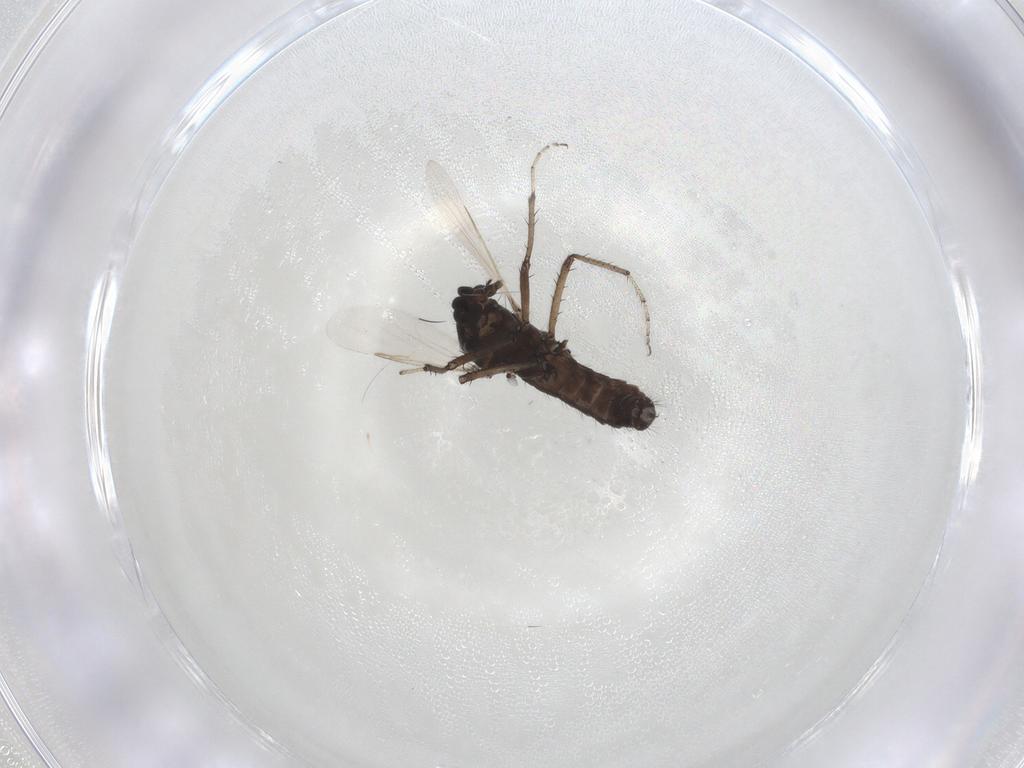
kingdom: Animalia
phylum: Arthropoda
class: Insecta
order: Diptera
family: Ceratopogonidae
